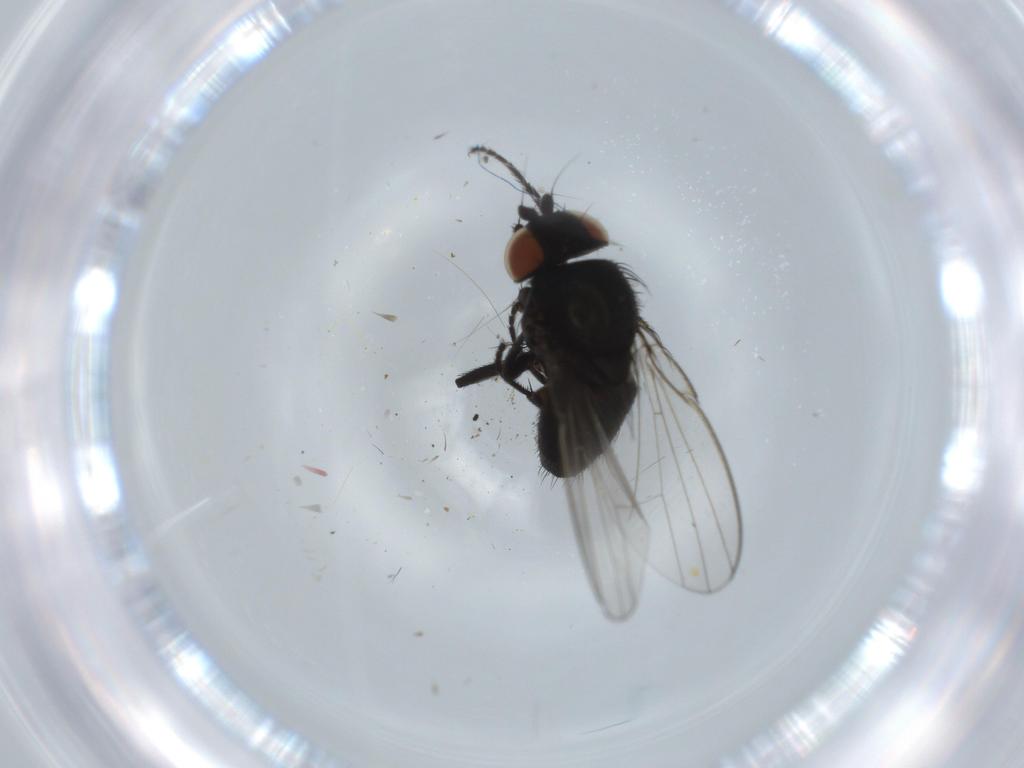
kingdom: Animalia
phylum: Arthropoda
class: Insecta
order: Diptera
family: Milichiidae
